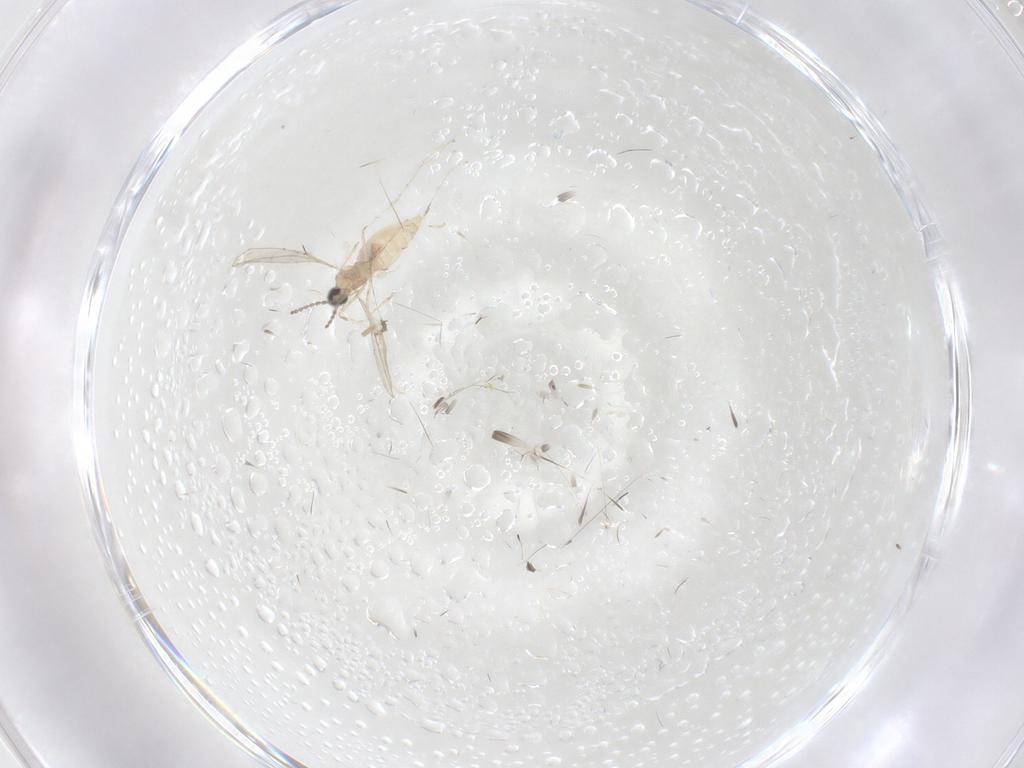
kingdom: Animalia
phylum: Arthropoda
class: Insecta
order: Diptera
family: Cecidomyiidae
